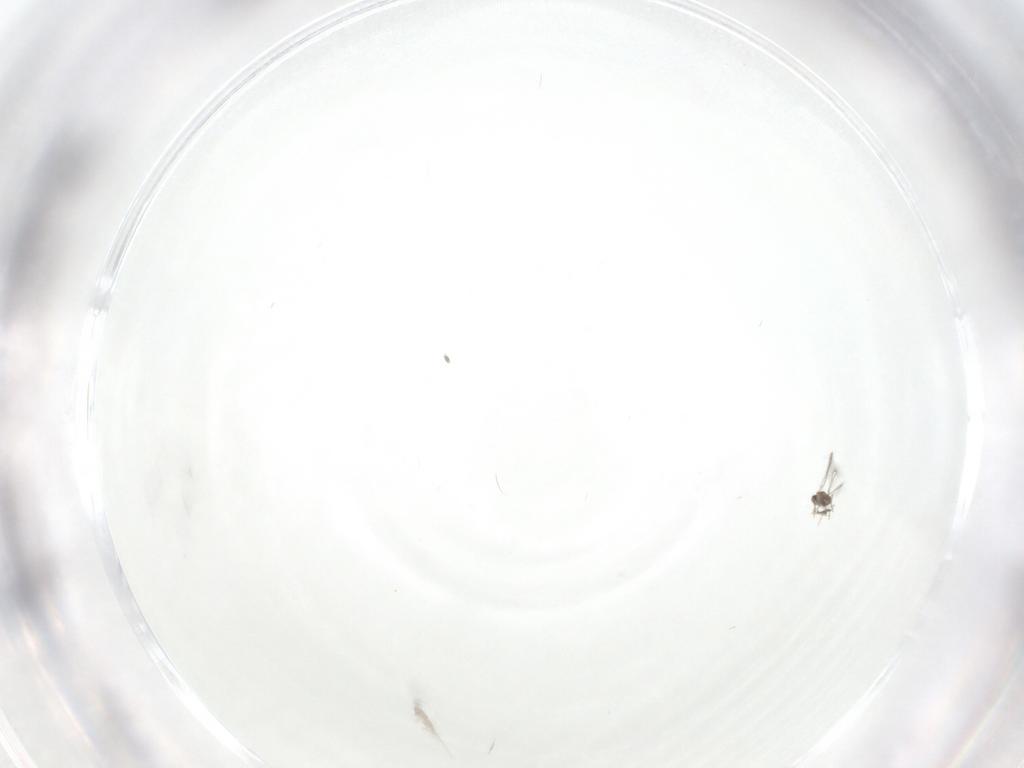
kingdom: Animalia
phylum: Arthropoda
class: Insecta
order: Hymenoptera
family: Mymaridae
